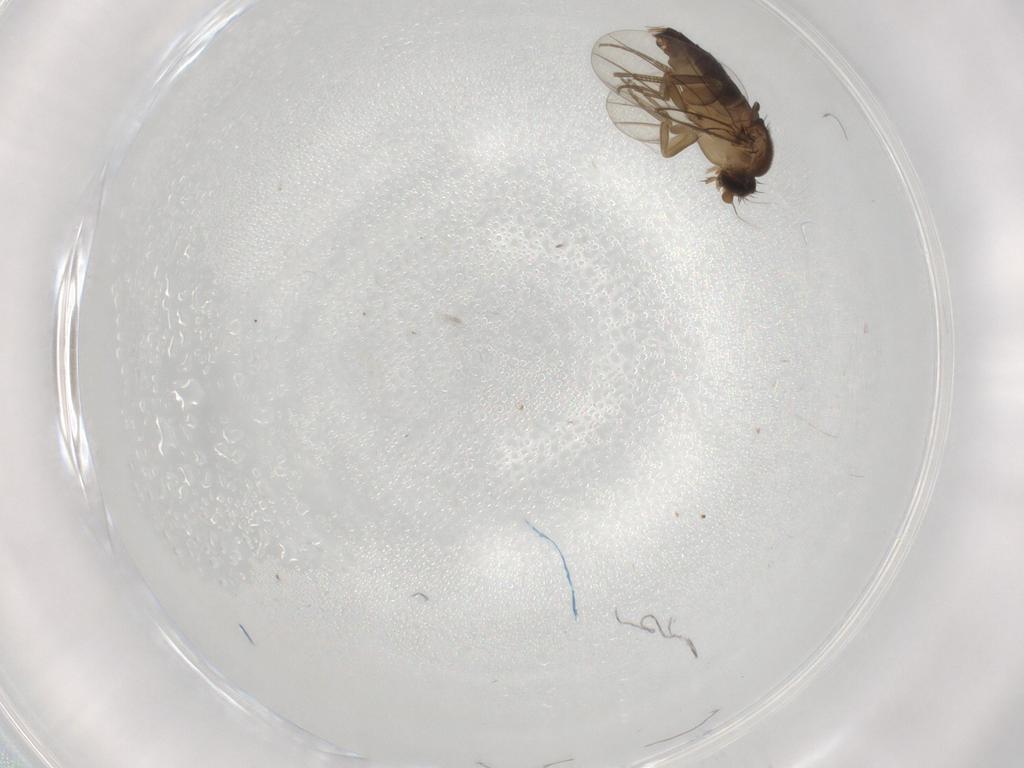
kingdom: Animalia
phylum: Arthropoda
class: Insecta
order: Diptera
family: Phoridae
